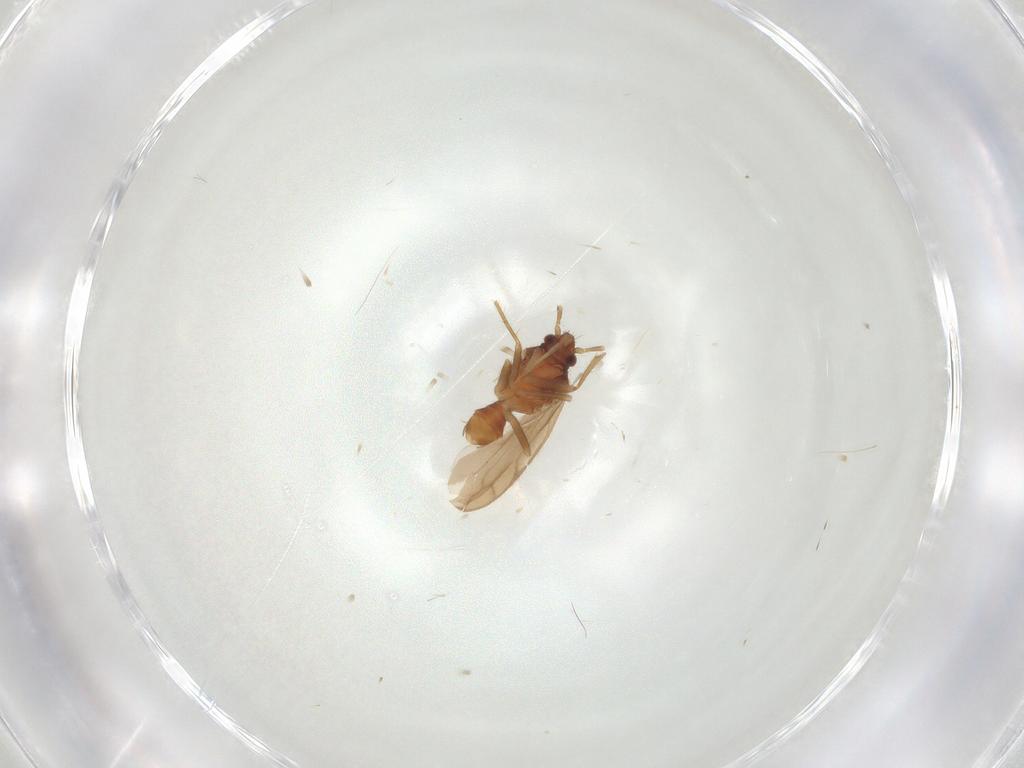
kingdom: Animalia
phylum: Arthropoda
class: Insecta
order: Hemiptera
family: Ceratocombidae
